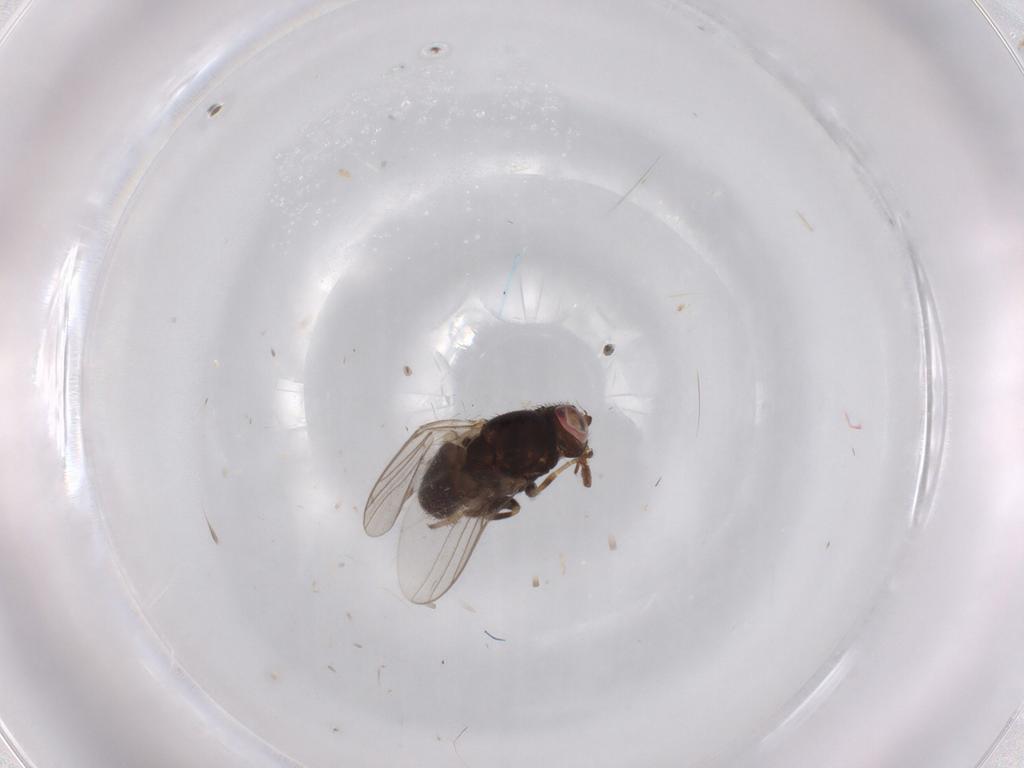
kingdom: Animalia
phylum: Arthropoda
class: Insecta
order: Diptera
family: Chloropidae
